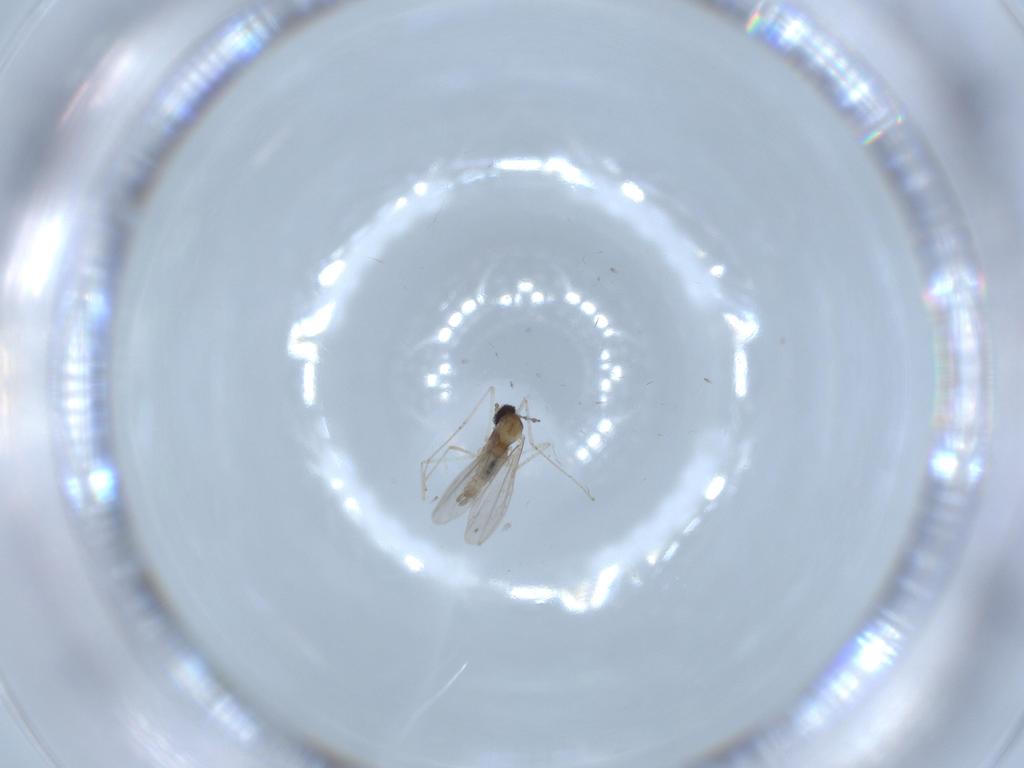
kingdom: Animalia
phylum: Arthropoda
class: Insecta
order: Diptera
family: Cecidomyiidae
